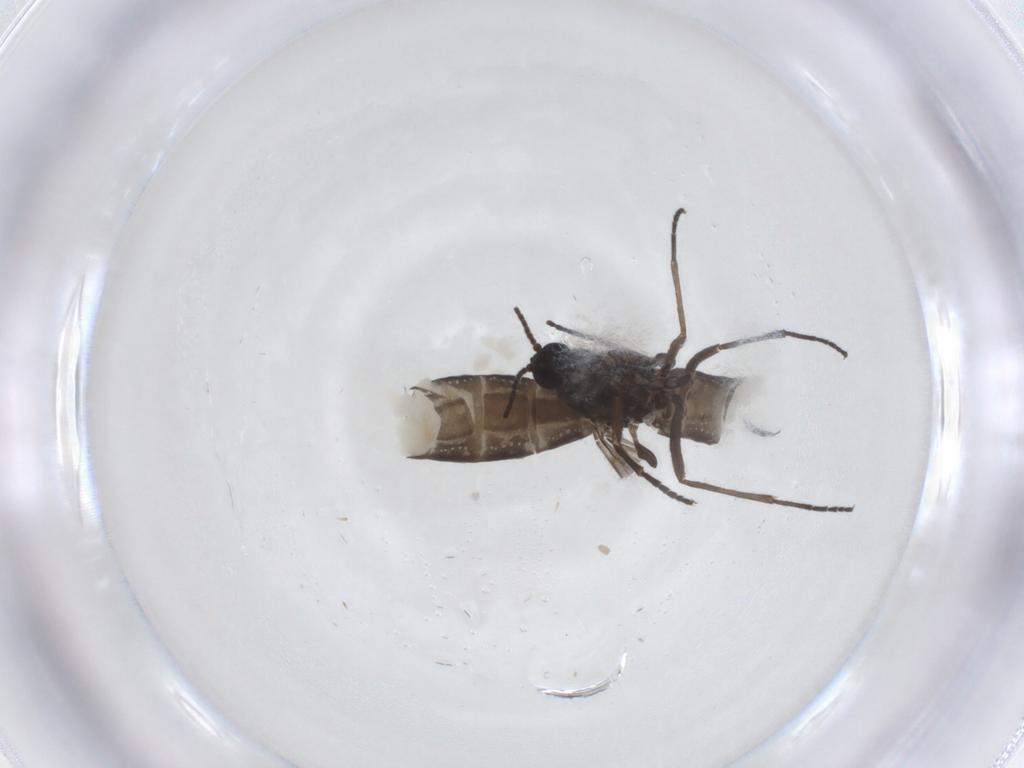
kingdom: Animalia
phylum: Arthropoda
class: Insecta
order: Diptera
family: Sciaridae
